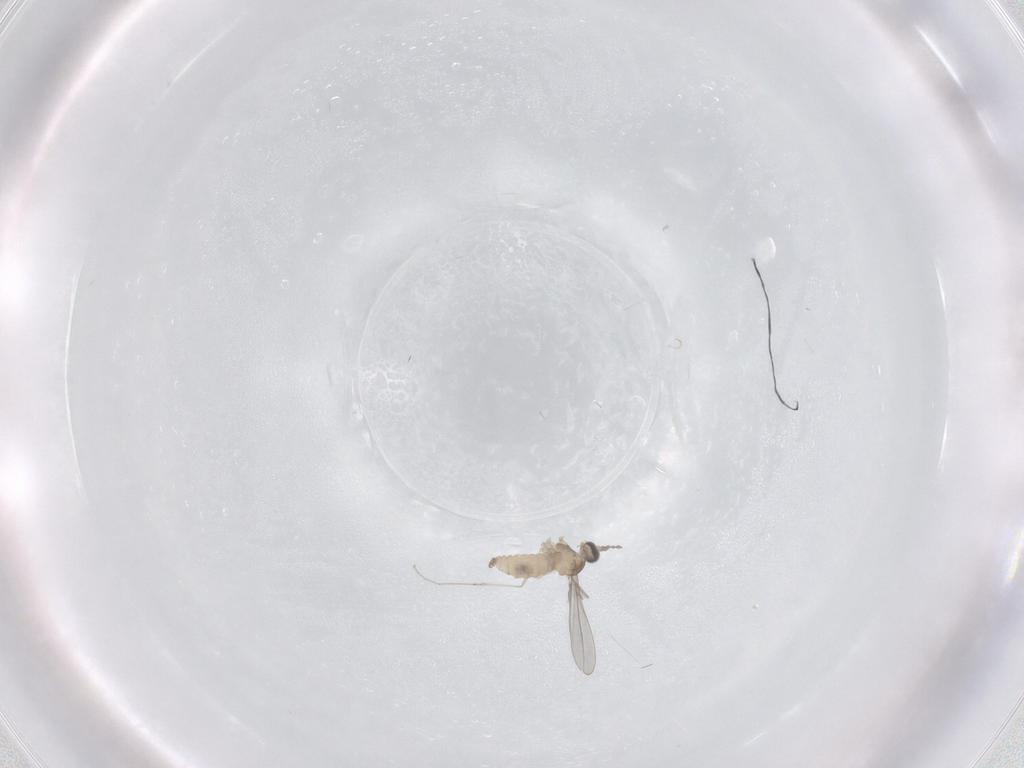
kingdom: Animalia
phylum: Arthropoda
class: Insecta
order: Diptera
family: Cecidomyiidae
